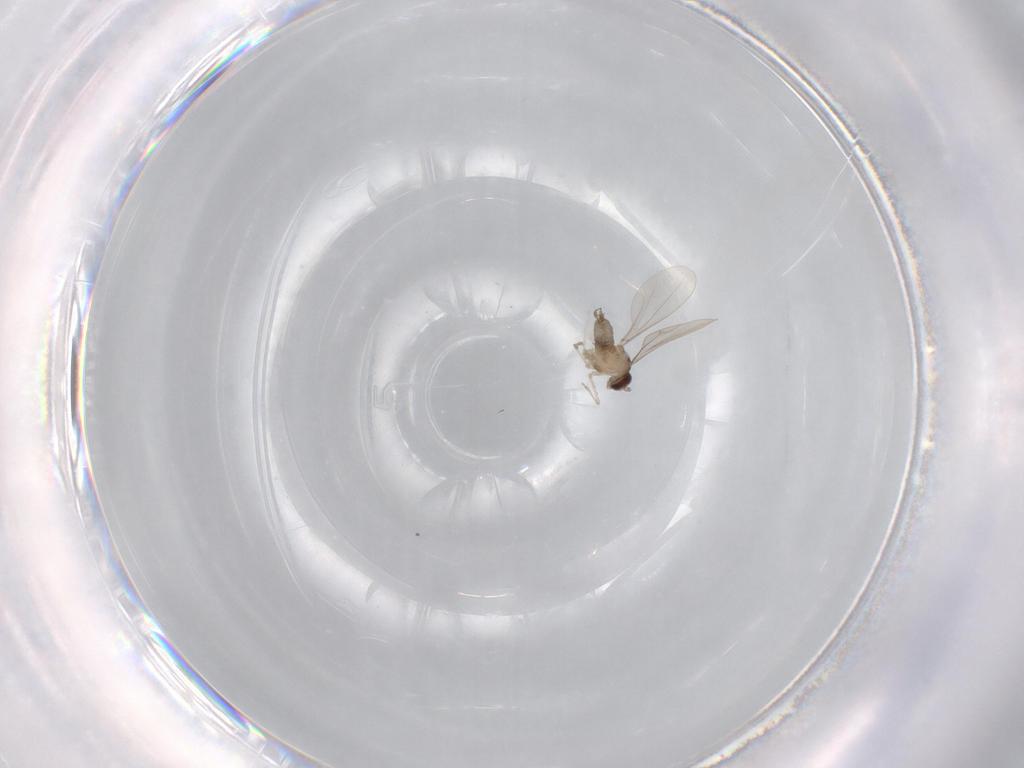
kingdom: Animalia
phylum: Arthropoda
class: Insecta
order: Diptera
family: Cecidomyiidae
